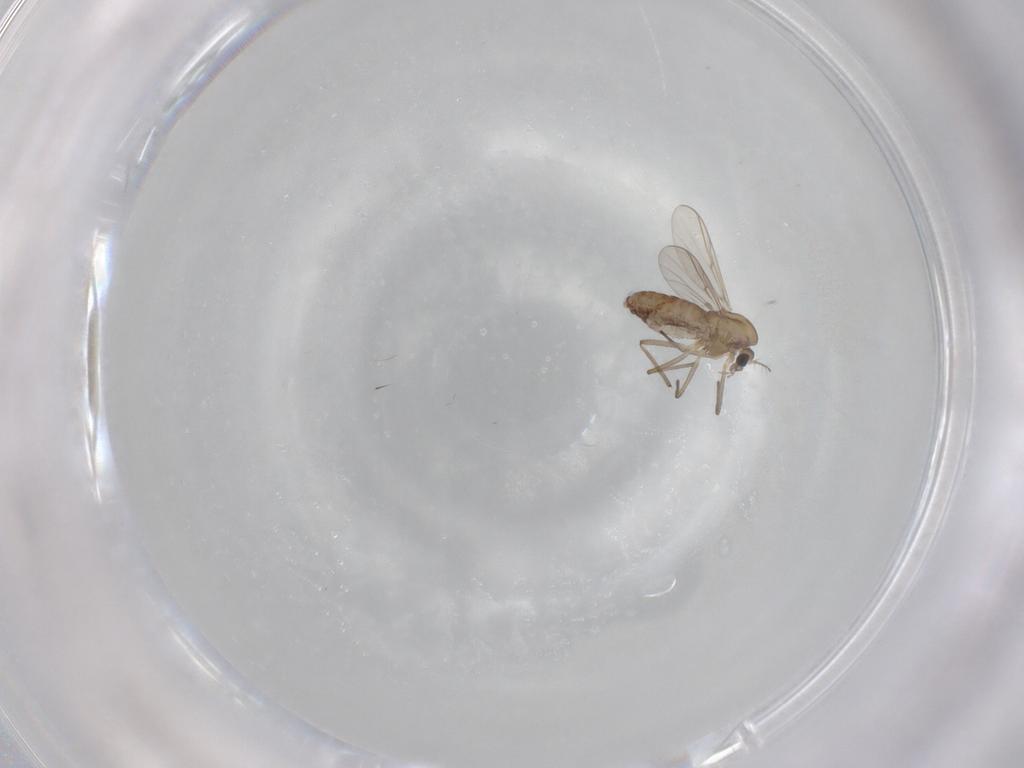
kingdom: Animalia
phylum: Arthropoda
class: Insecta
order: Diptera
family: Chironomidae
